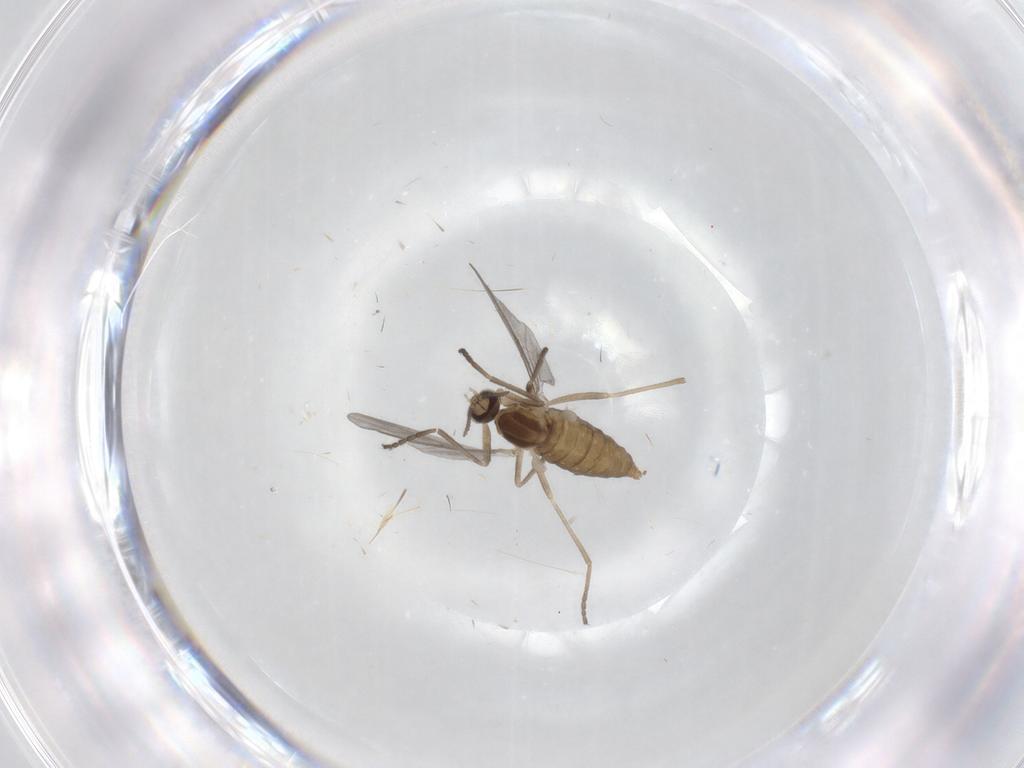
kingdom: Animalia
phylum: Arthropoda
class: Insecta
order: Diptera
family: Cecidomyiidae
